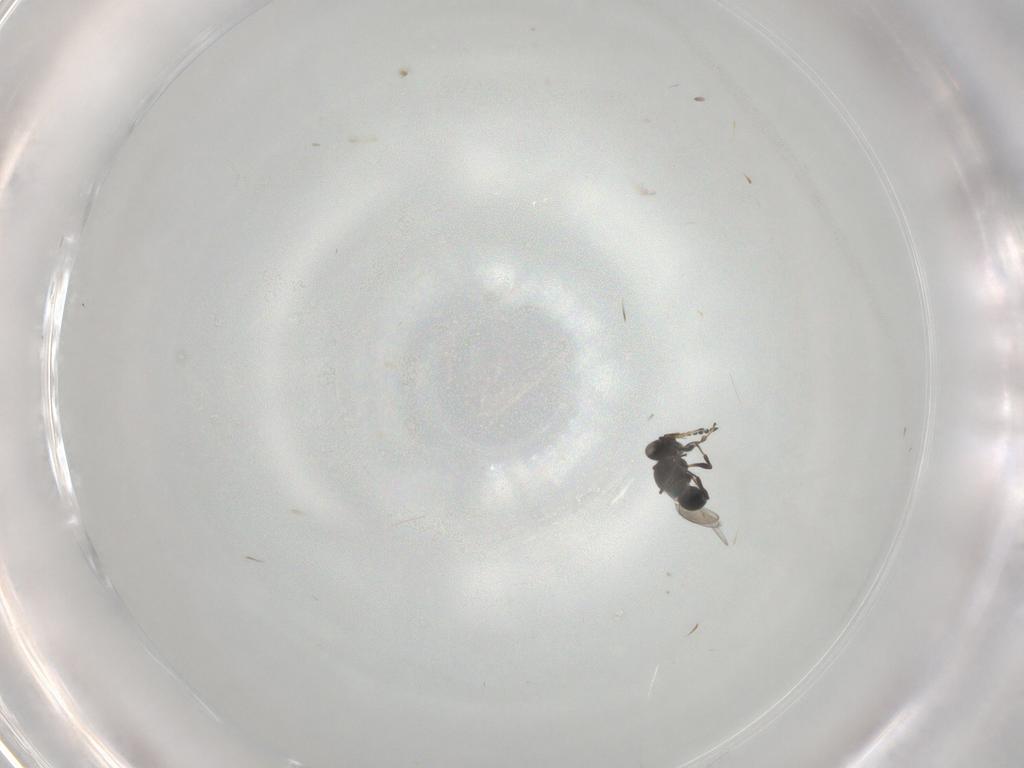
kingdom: Animalia
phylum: Arthropoda
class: Insecta
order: Hymenoptera
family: Platygastridae
